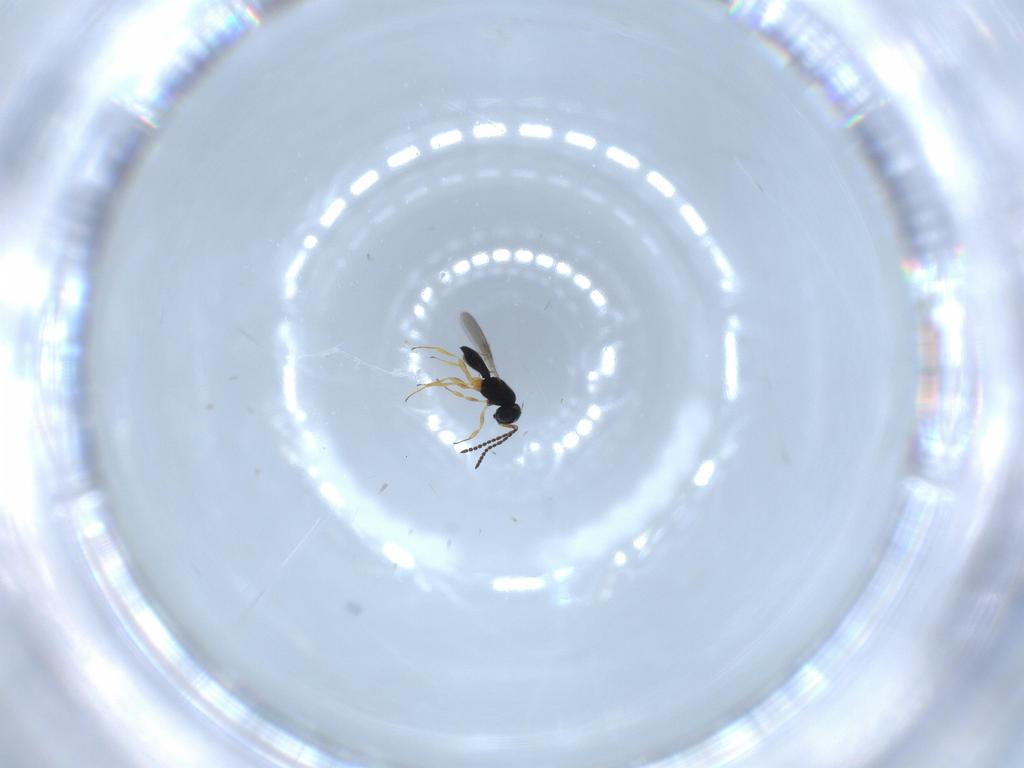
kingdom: Animalia
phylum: Arthropoda
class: Insecta
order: Hymenoptera
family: Scelionidae
